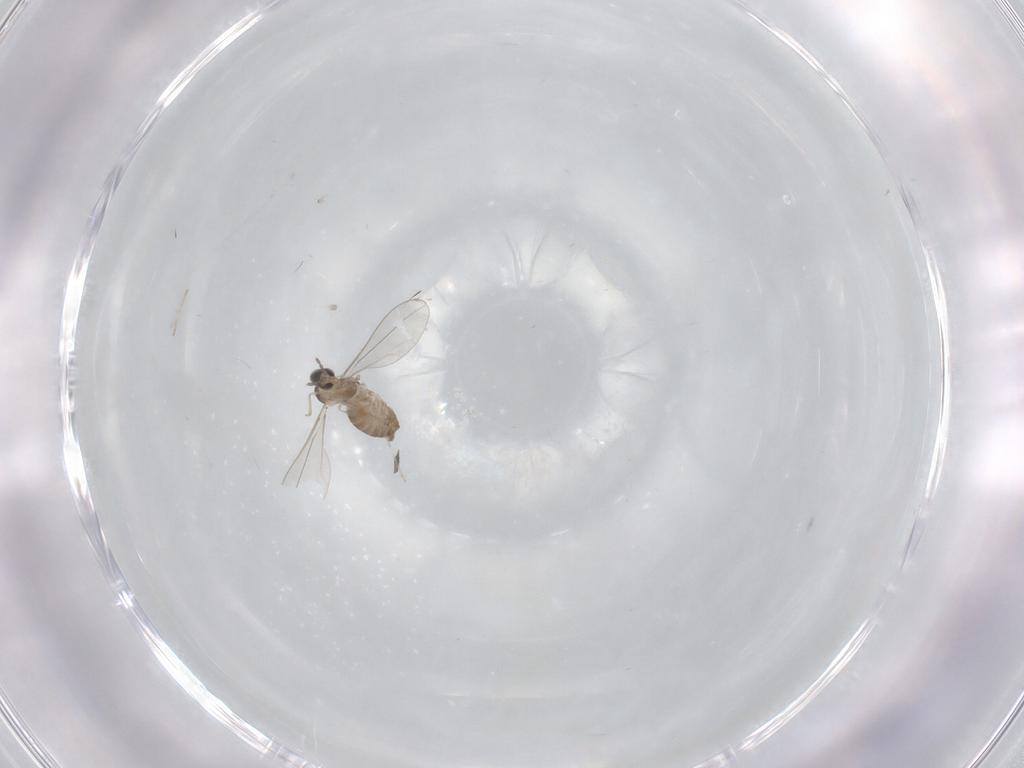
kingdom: Animalia
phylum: Arthropoda
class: Insecta
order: Diptera
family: Cecidomyiidae
